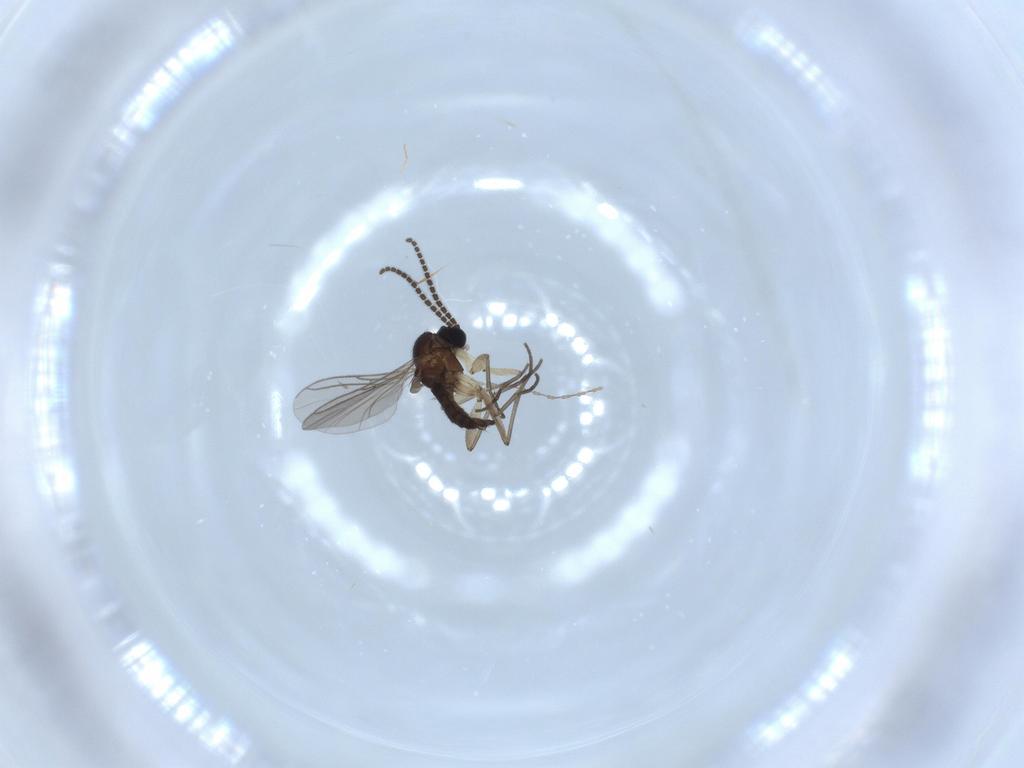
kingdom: Animalia
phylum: Arthropoda
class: Insecta
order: Diptera
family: Sciaridae
